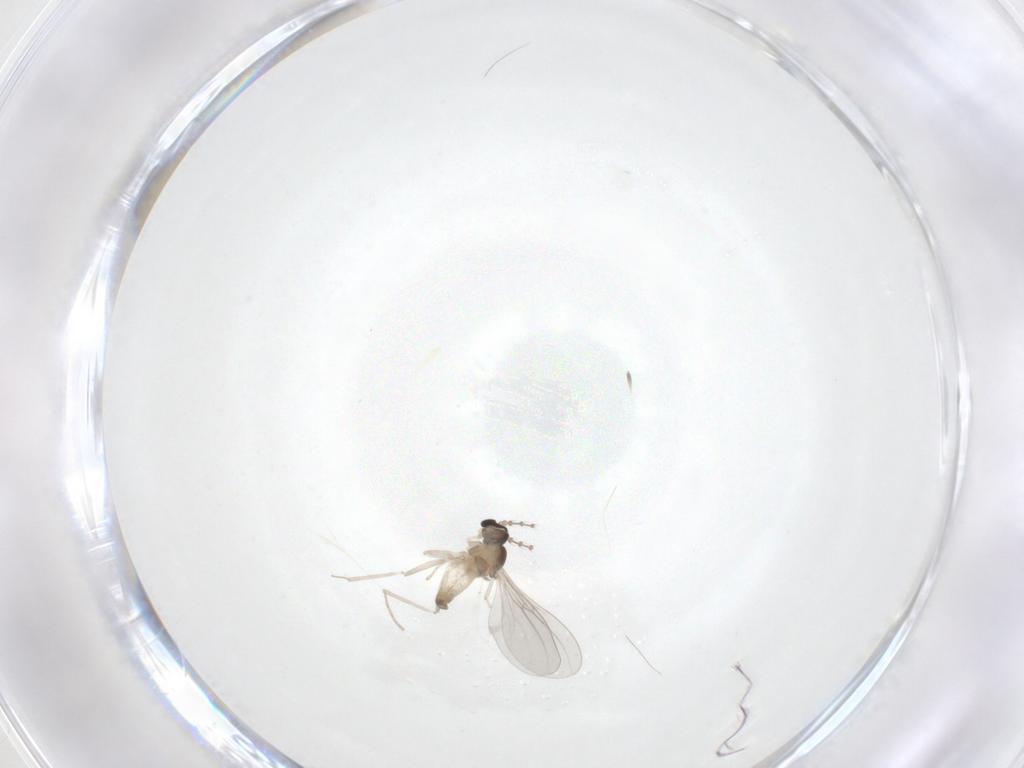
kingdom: Animalia
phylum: Arthropoda
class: Insecta
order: Diptera
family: Cecidomyiidae
